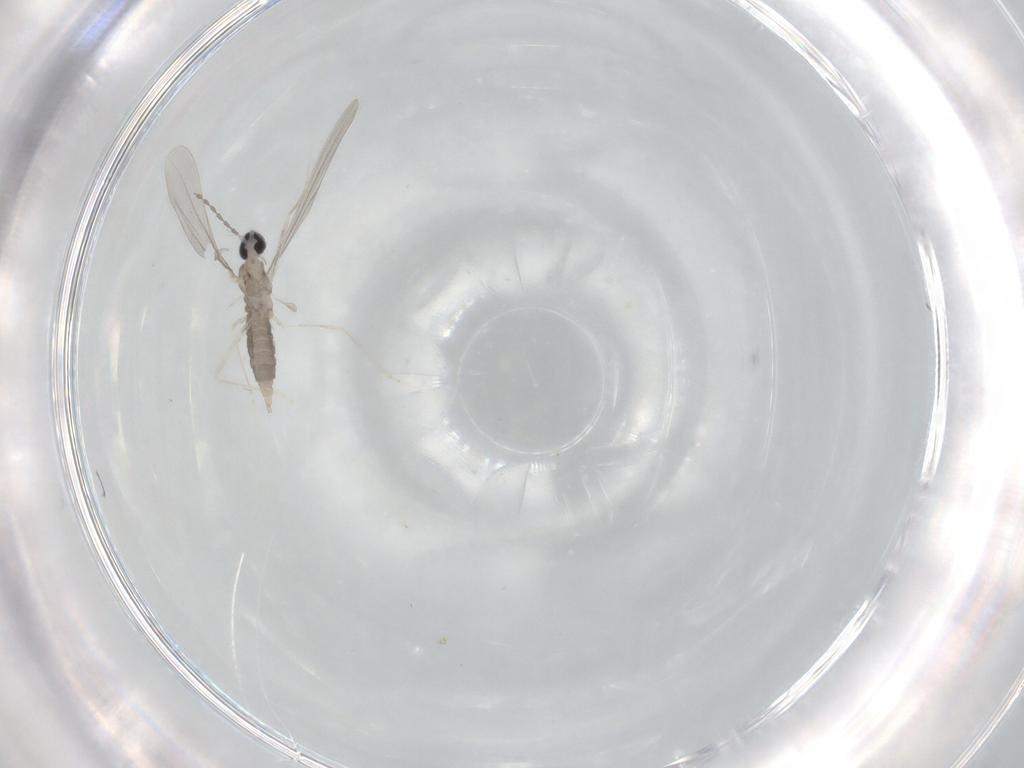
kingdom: Animalia
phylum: Arthropoda
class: Insecta
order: Diptera
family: Cecidomyiidae
